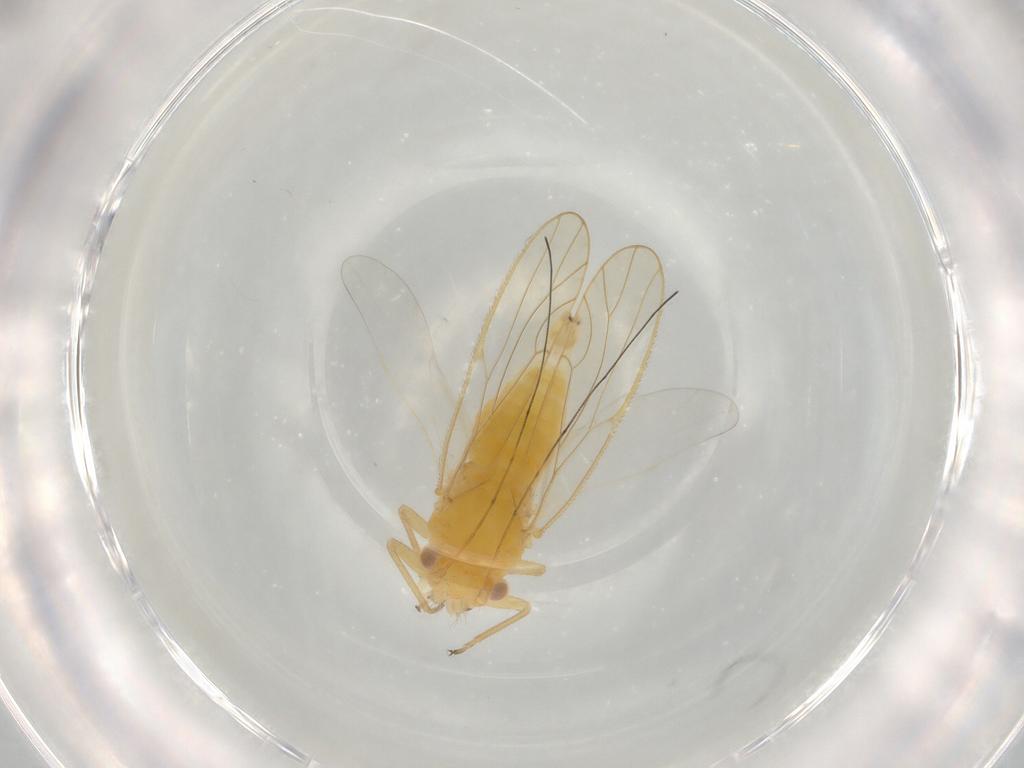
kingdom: Animalia
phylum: Arthropoda
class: Insecta
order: Hemiptera
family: Psyllidae
